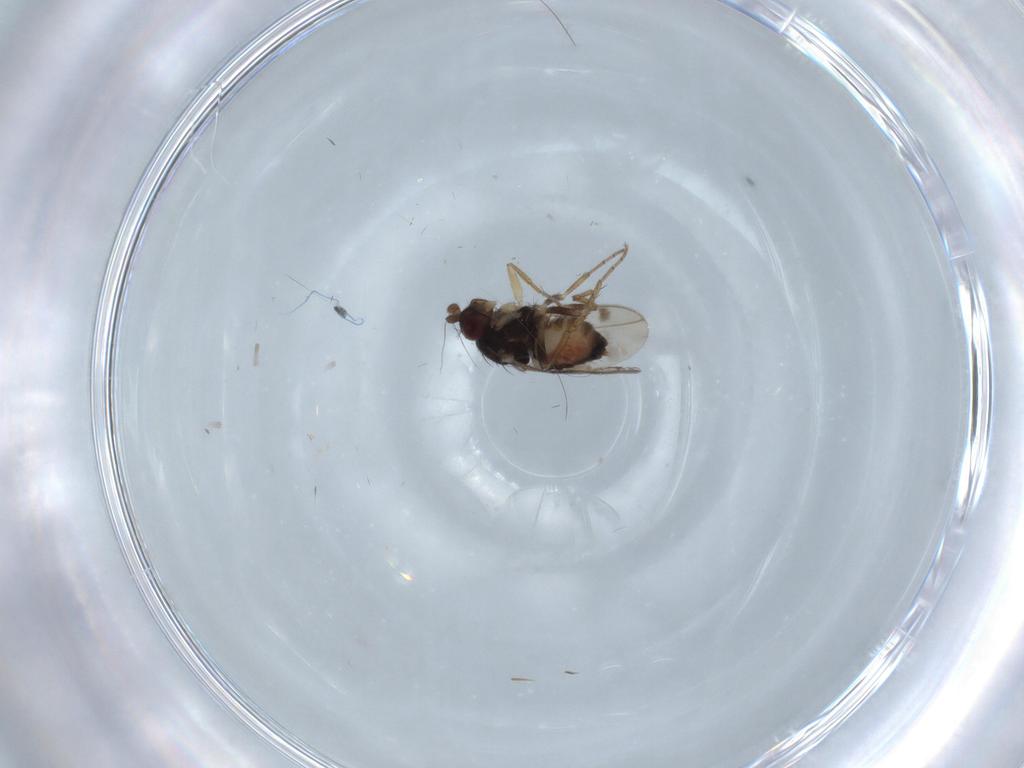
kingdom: Animalia
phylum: Arthropoda
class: Insecta
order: Diptera
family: Sphaeroceridae
